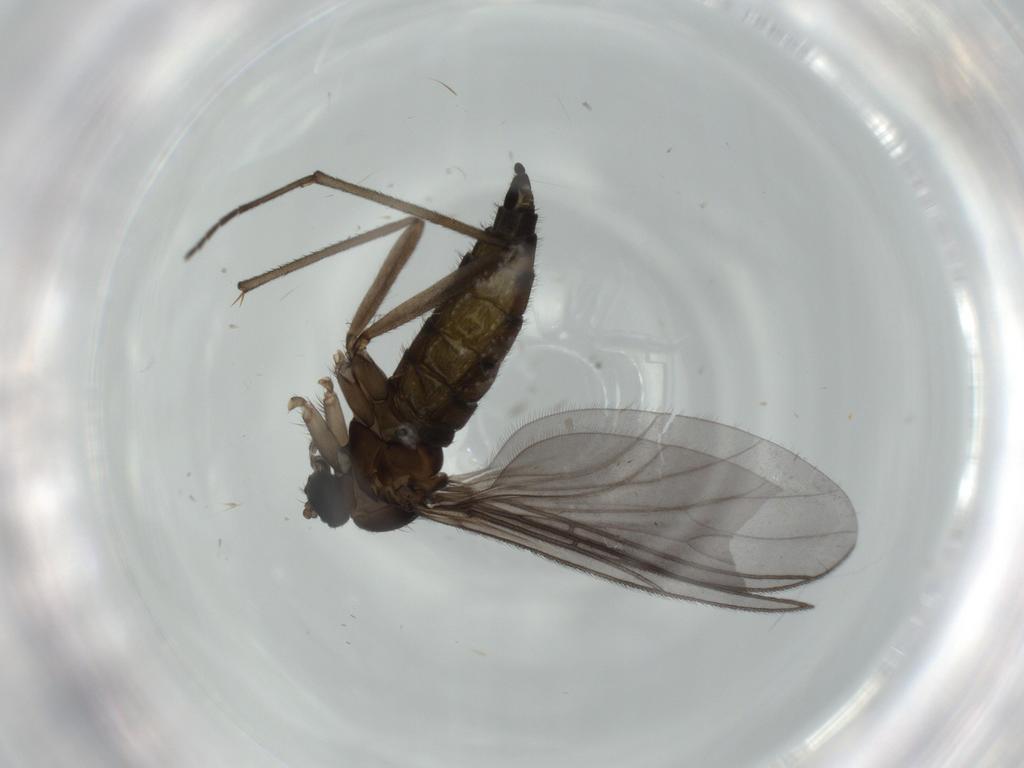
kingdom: Animalia
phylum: Arthropoda
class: Insecta
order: Diptera
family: Sciaridae
